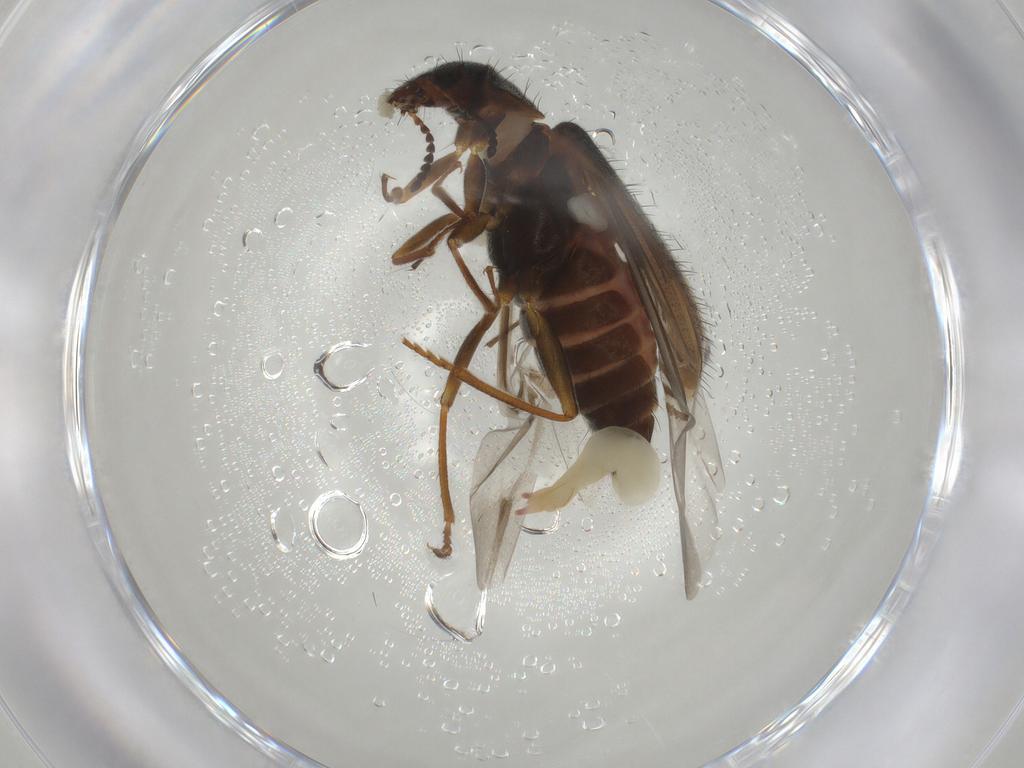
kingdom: Animalia
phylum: Arthropoda
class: Insecta
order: Coleoptera
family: Melyridae
